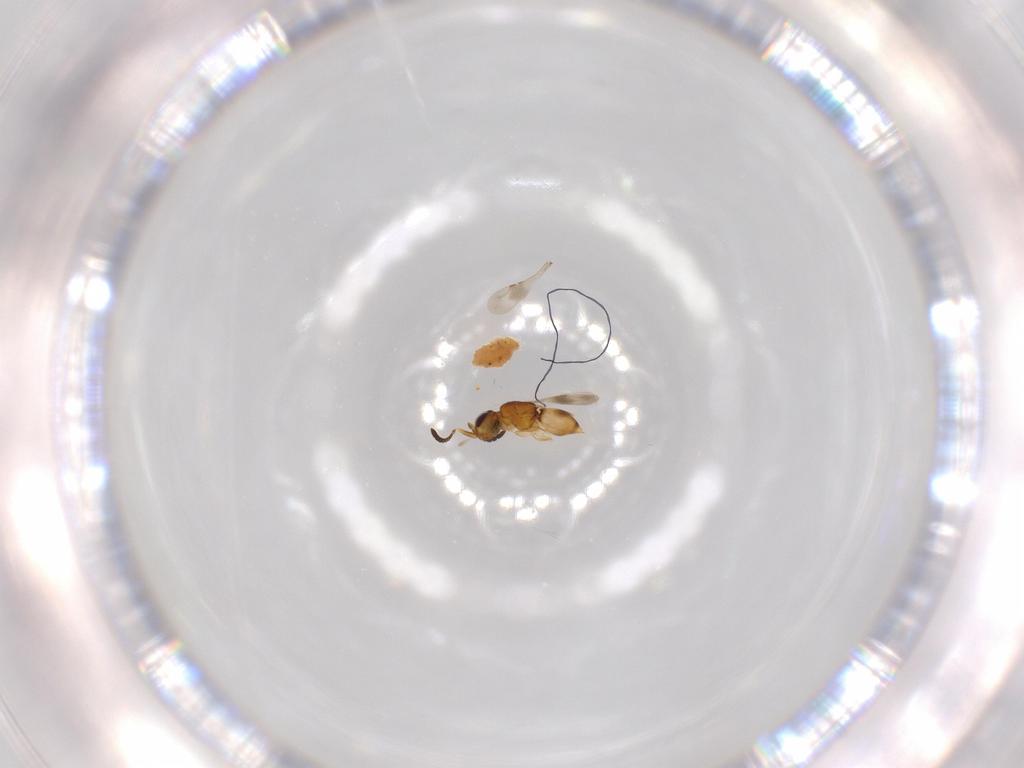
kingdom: Animalia
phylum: Arthropoda
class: Insecta
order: Hymenoptera
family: Ceraphronidae
